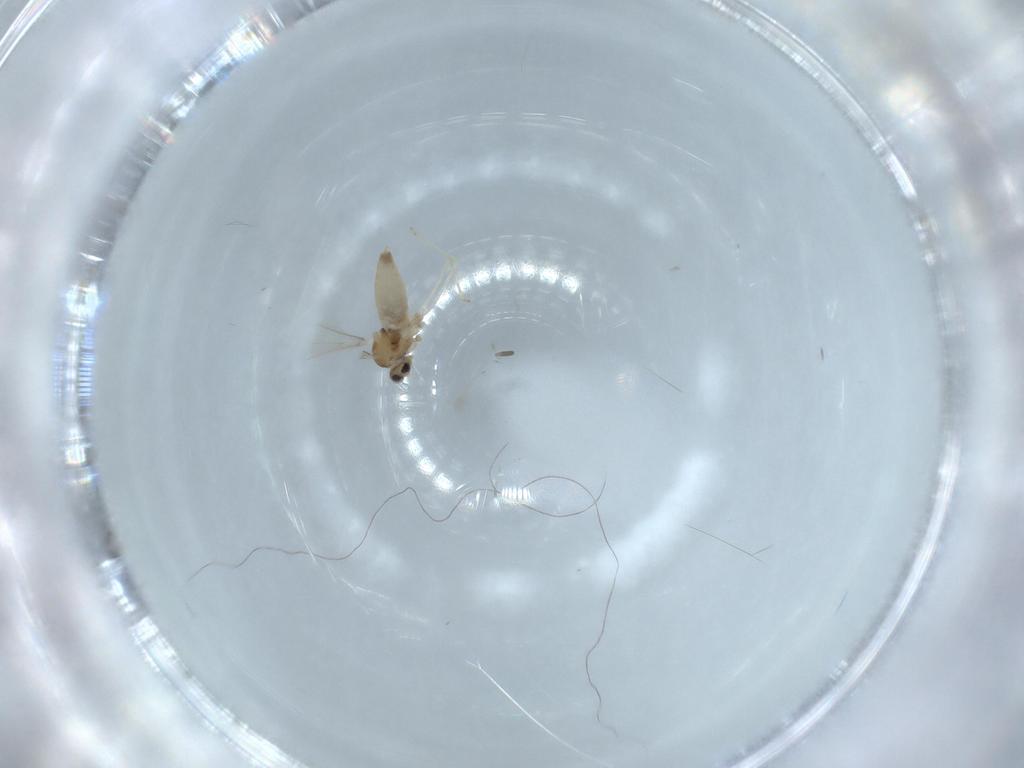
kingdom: Animalia
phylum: Arthropoda
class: Insecta
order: Diptera
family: Cecidomyiidae
